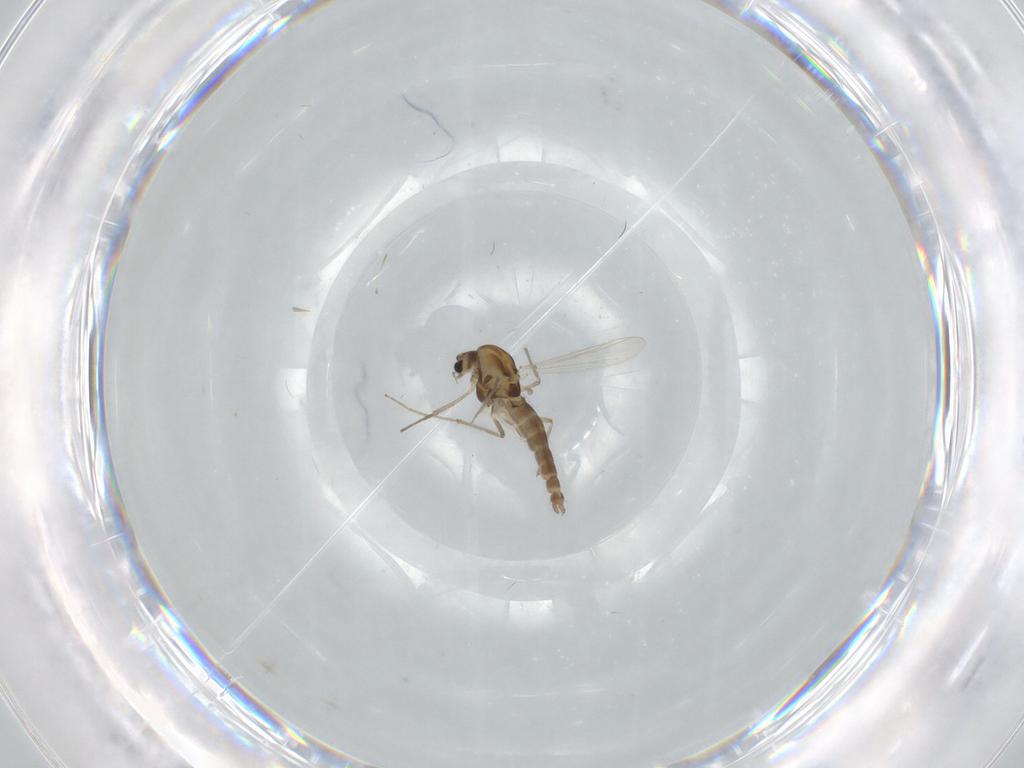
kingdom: Animalia
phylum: Arthropoda
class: Insecta
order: Diptera
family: Chironomidae
